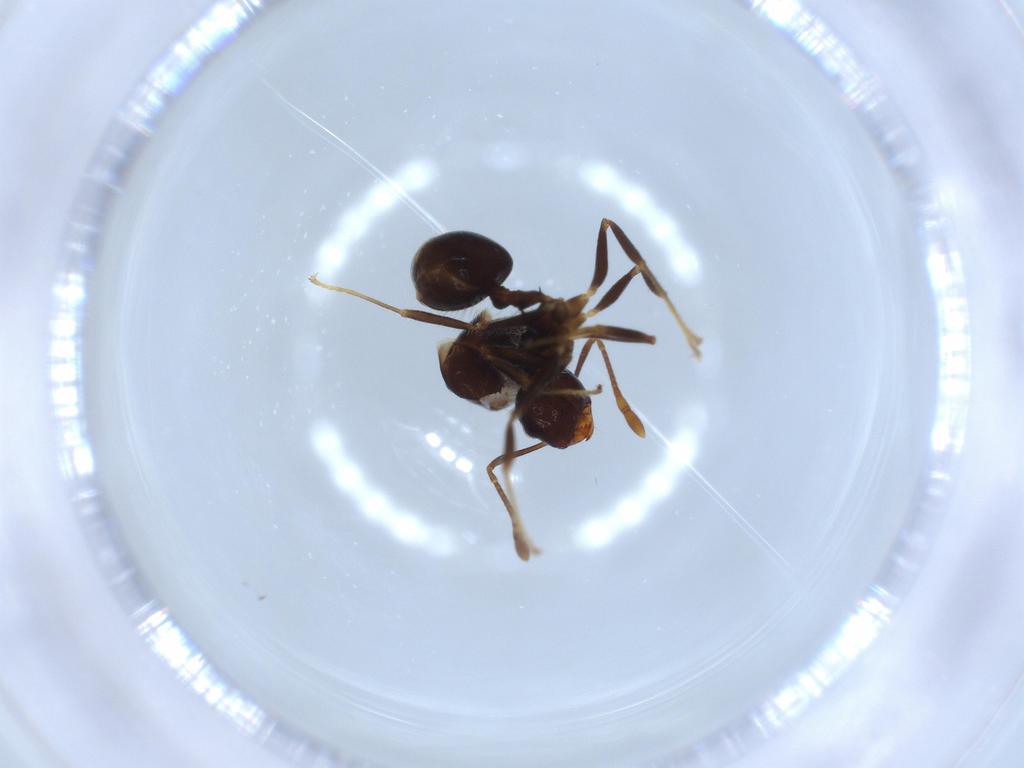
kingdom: Animalia
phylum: Arthropoda
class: Insecta
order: Hymenoptera
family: Formicidae
